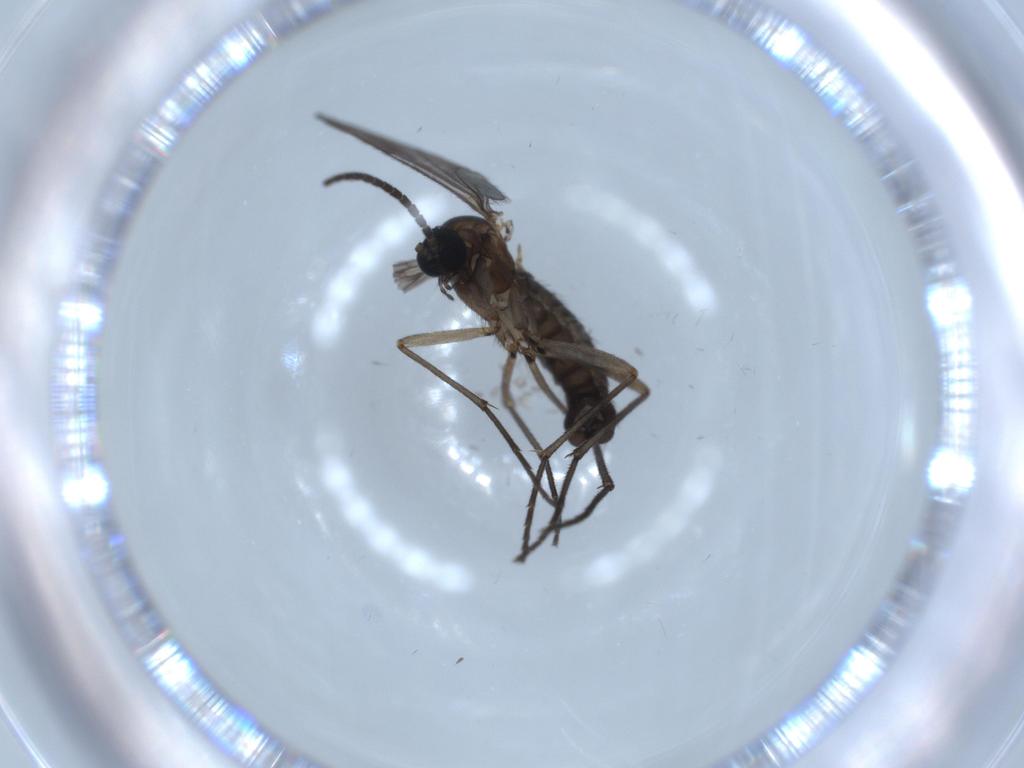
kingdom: Animalia
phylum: Arthropoda
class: Insecta
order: Diptera
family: Sciaridae
